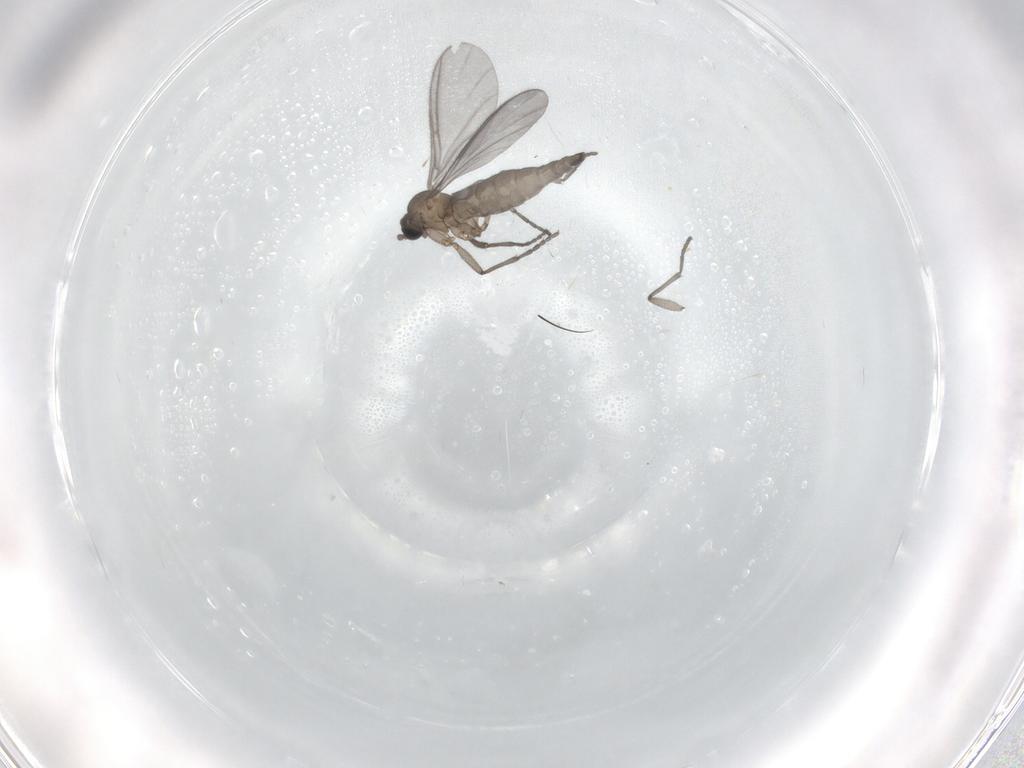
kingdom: Animalia
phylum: Arthropoda
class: Insecta
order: Diptera
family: Sciaridae
